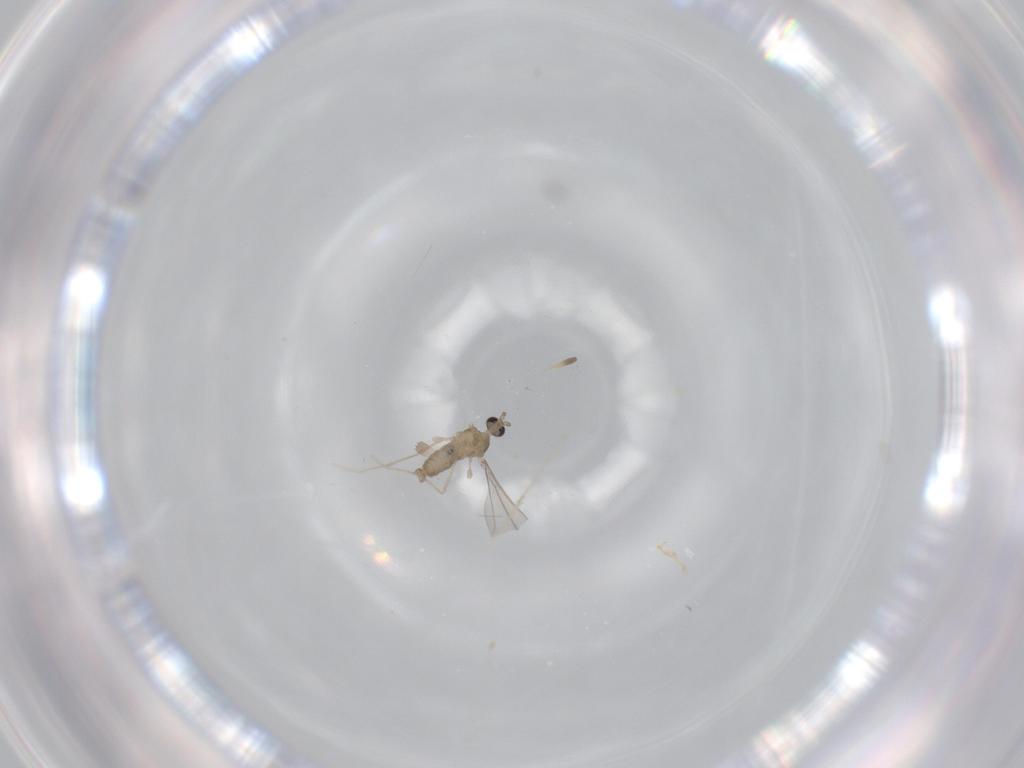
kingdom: Animalia
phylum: Arthropoda
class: Insecta
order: Diptera
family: Cecidomyiidae
